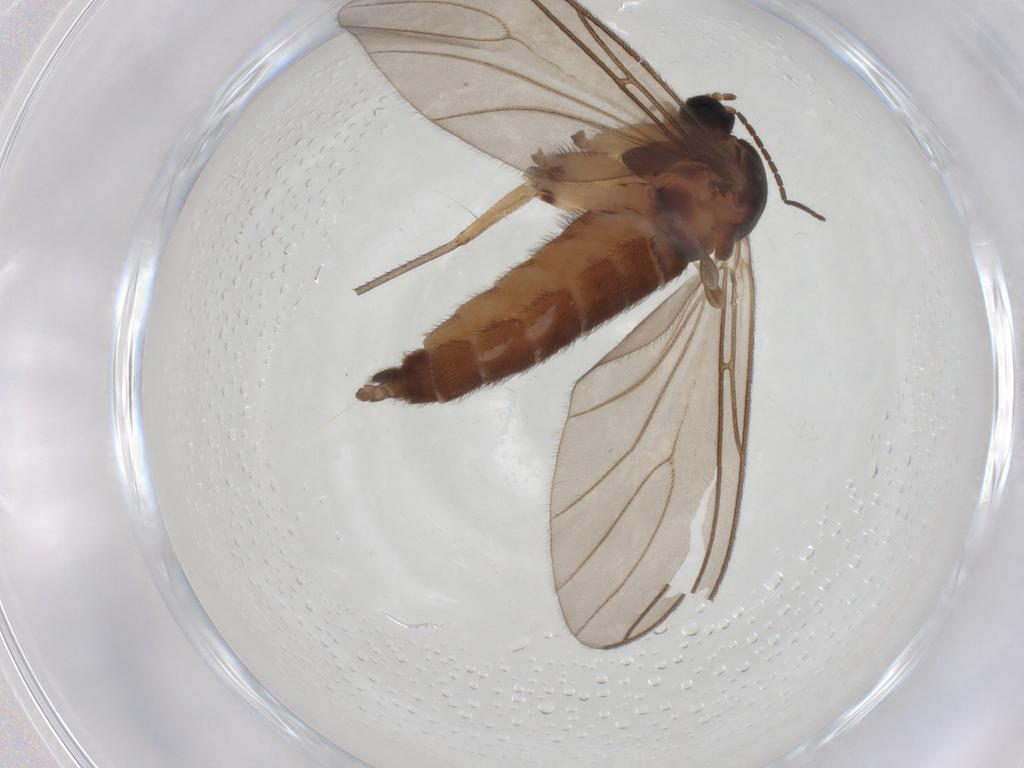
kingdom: Animalia
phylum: Arthropoda
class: Insecta
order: Diptera
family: Sciaridae
